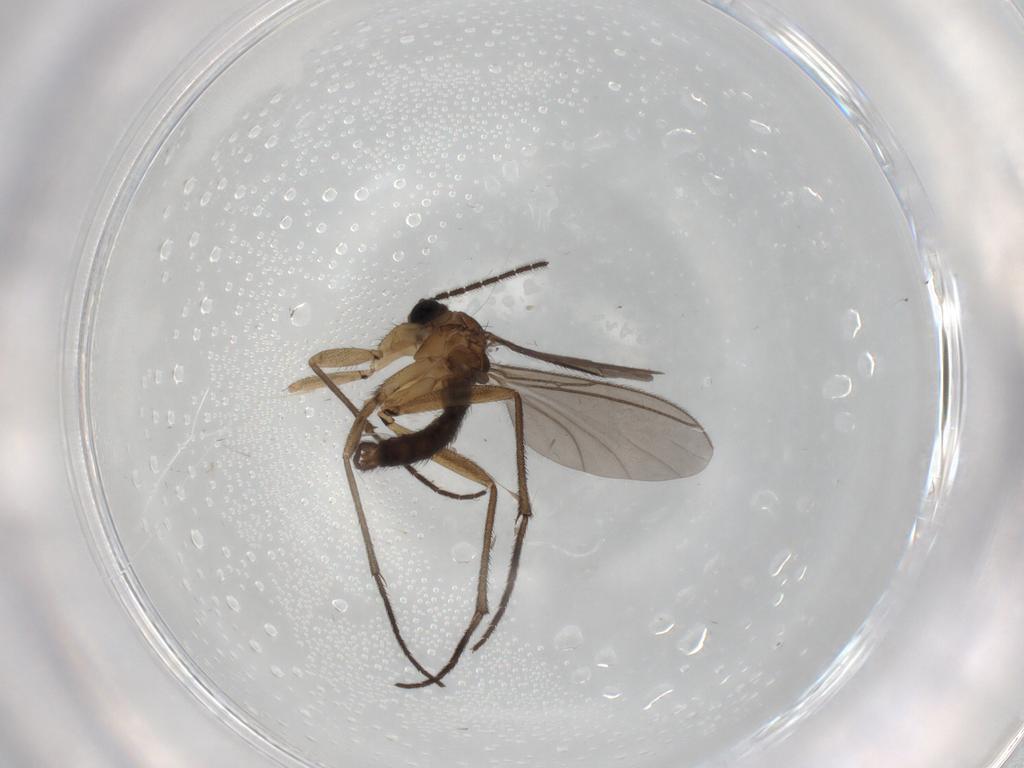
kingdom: Animalia
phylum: Arthropoda
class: Insecta
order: Diptera
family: Sciaridae
